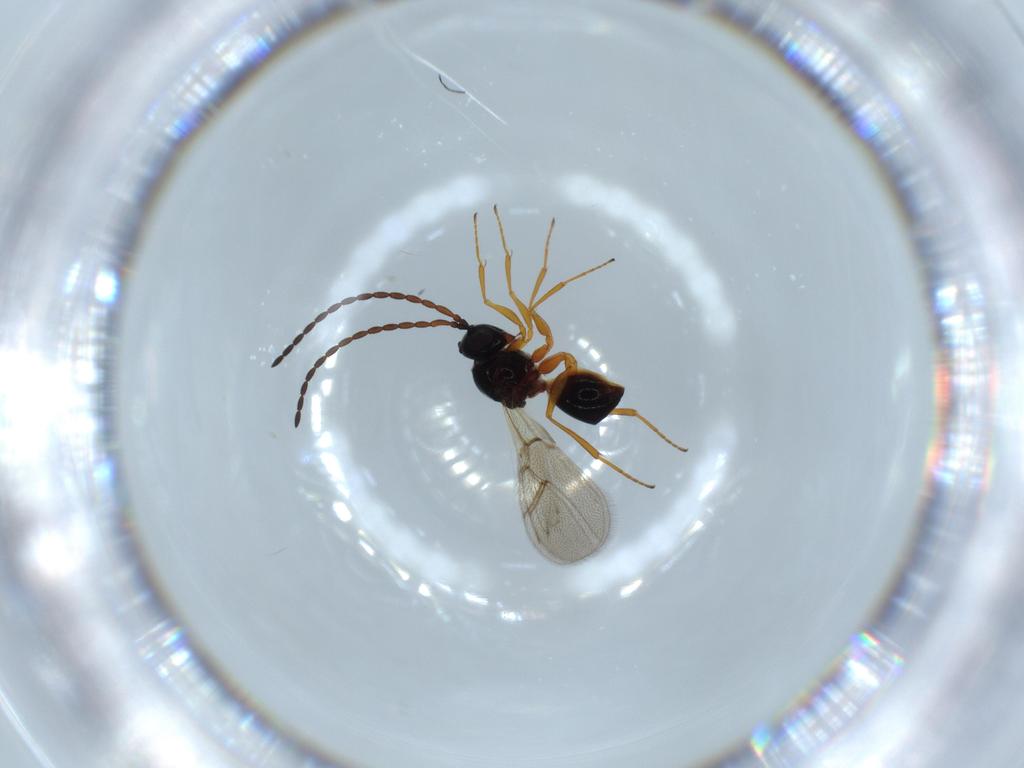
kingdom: Animalia
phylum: Arthropoda
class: Insecta
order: Hymenoptera
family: Figitidae
